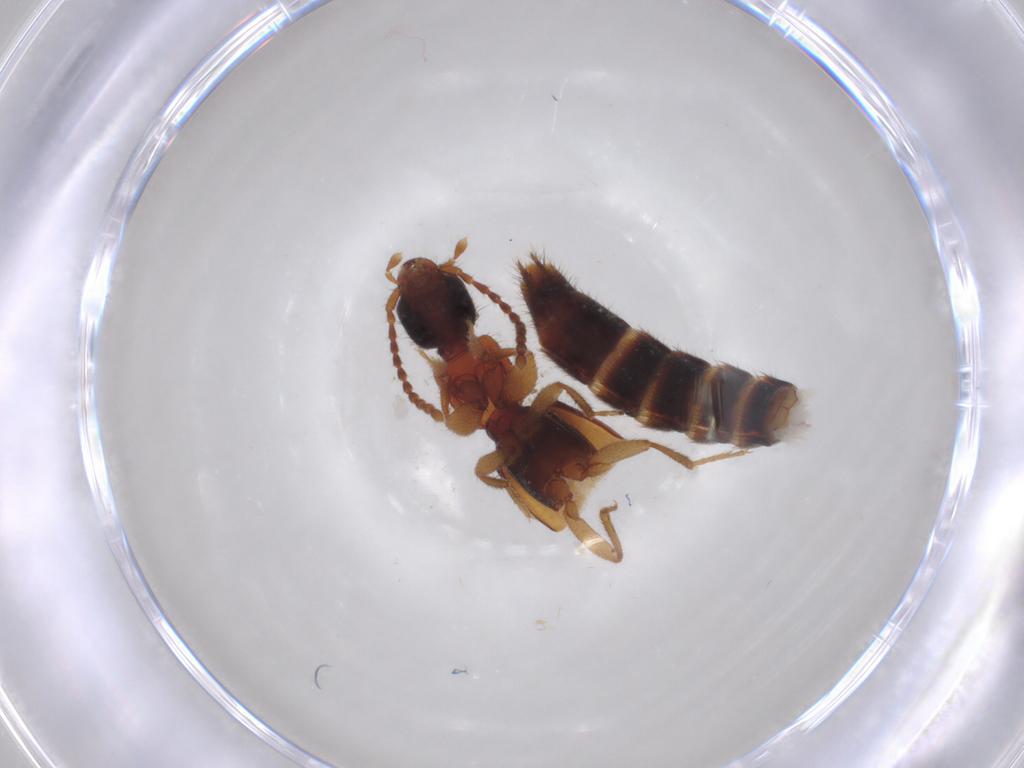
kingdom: Animalia
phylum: Arthropoda
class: Insecta
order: Coleoptera
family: Staphylinidae
